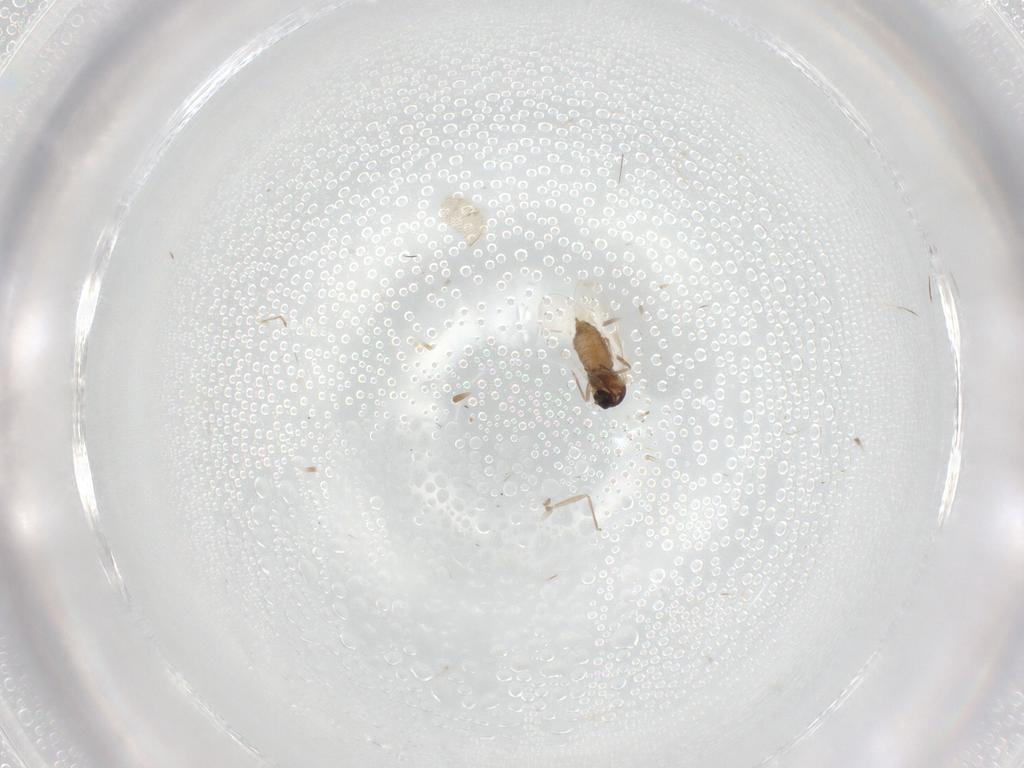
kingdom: Animalia
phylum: Arthropoda
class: Insecta
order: Diptera
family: Cecidomyiidae
